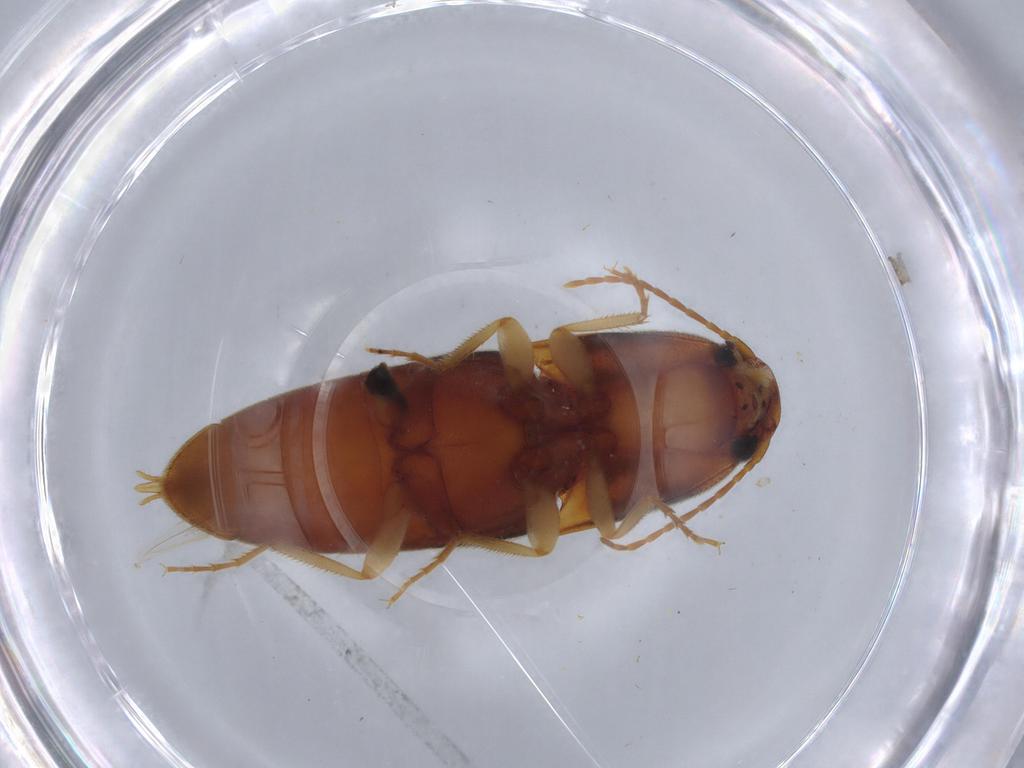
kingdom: Animalia
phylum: Arthropoda
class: Insecta
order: Coleoptera
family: Elateridae
